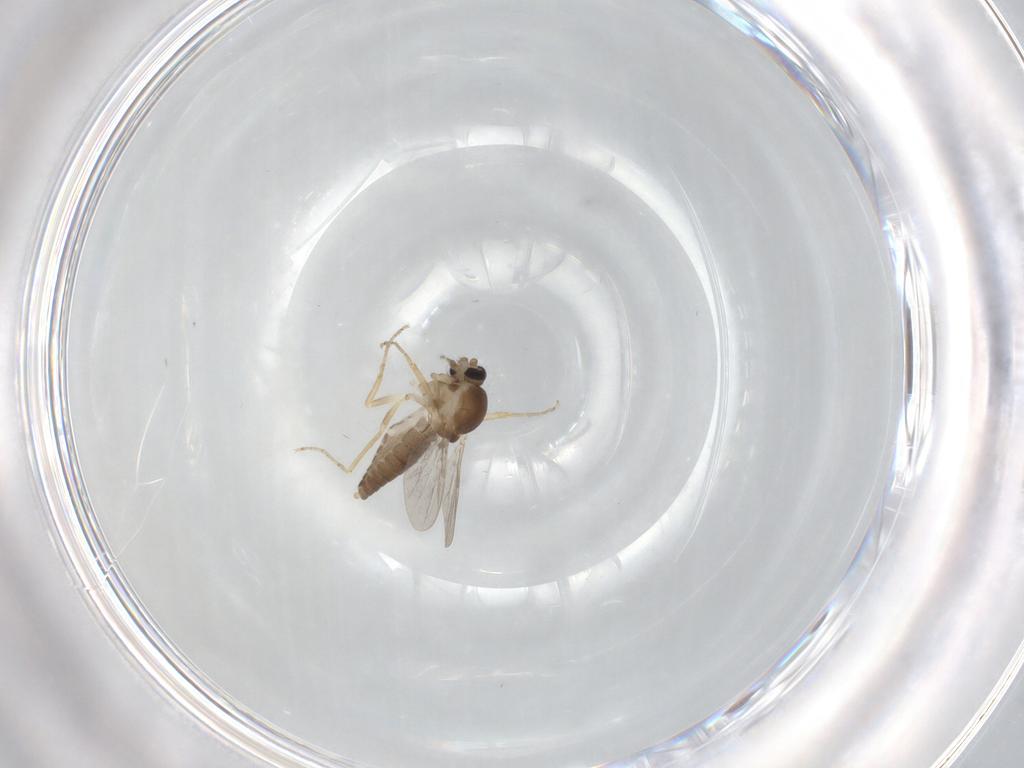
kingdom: Animalia
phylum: Arthropoda
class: Insecta
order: Diptera
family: Ceratopogonidae
